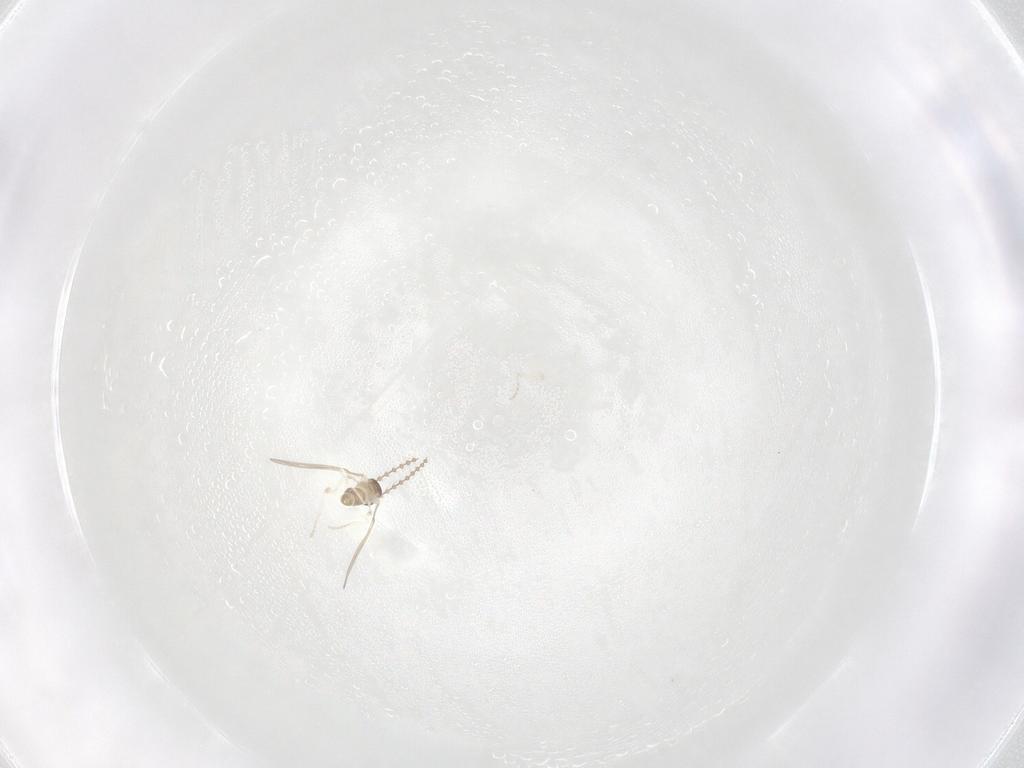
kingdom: Animalia
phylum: Arthropoda
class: Insecta
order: Diptera
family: Cecidomyiidae
